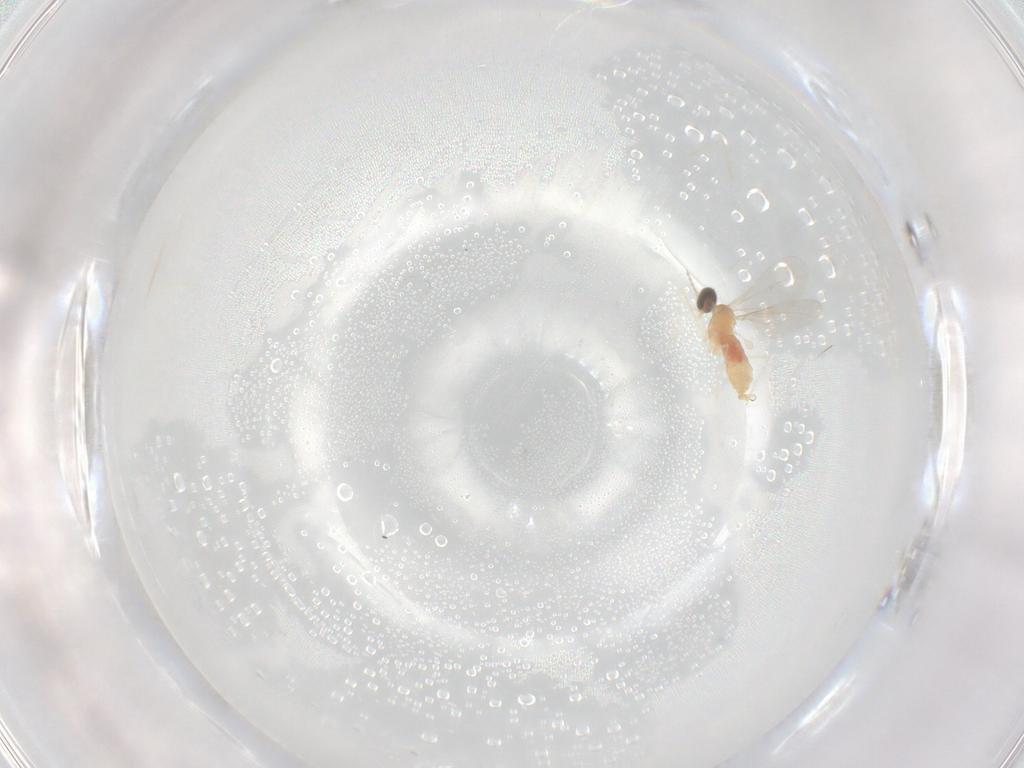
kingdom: Animalia
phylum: Arthropoda
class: Insecta
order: Diptera
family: Cecidomyiidae
